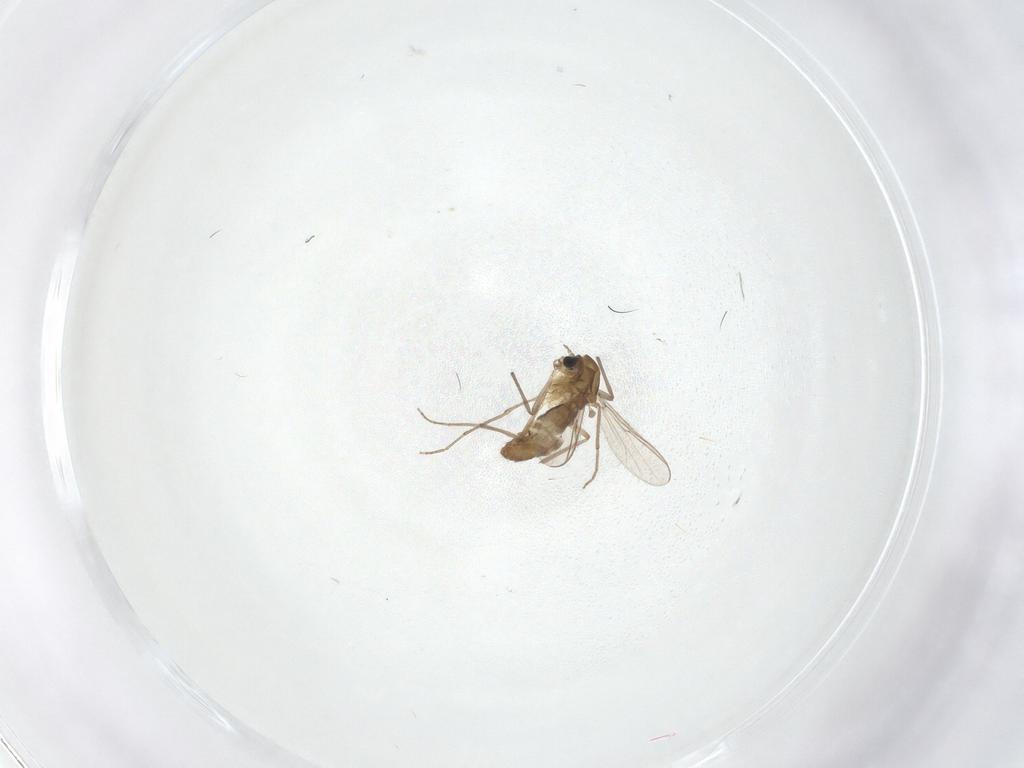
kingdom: Animalia
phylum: Arthropoda
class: Insecta
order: Diptera
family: Chironomidae
